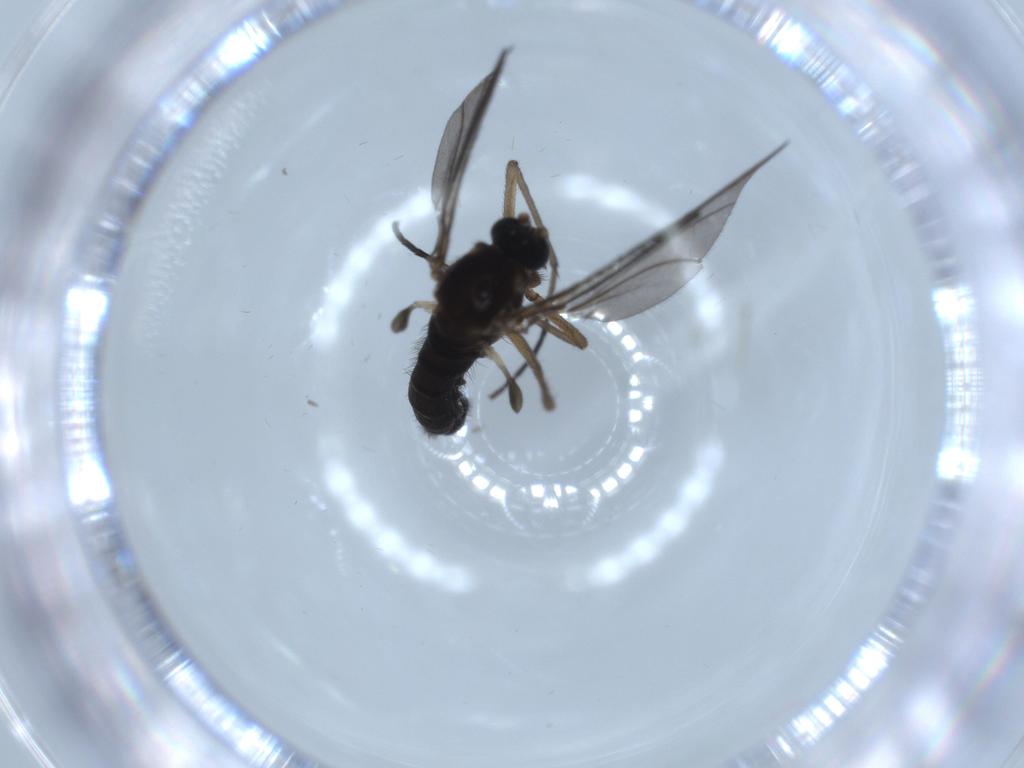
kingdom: Animalia
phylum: Arthropoda
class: Insecta
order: Diptera
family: Sciaridae
